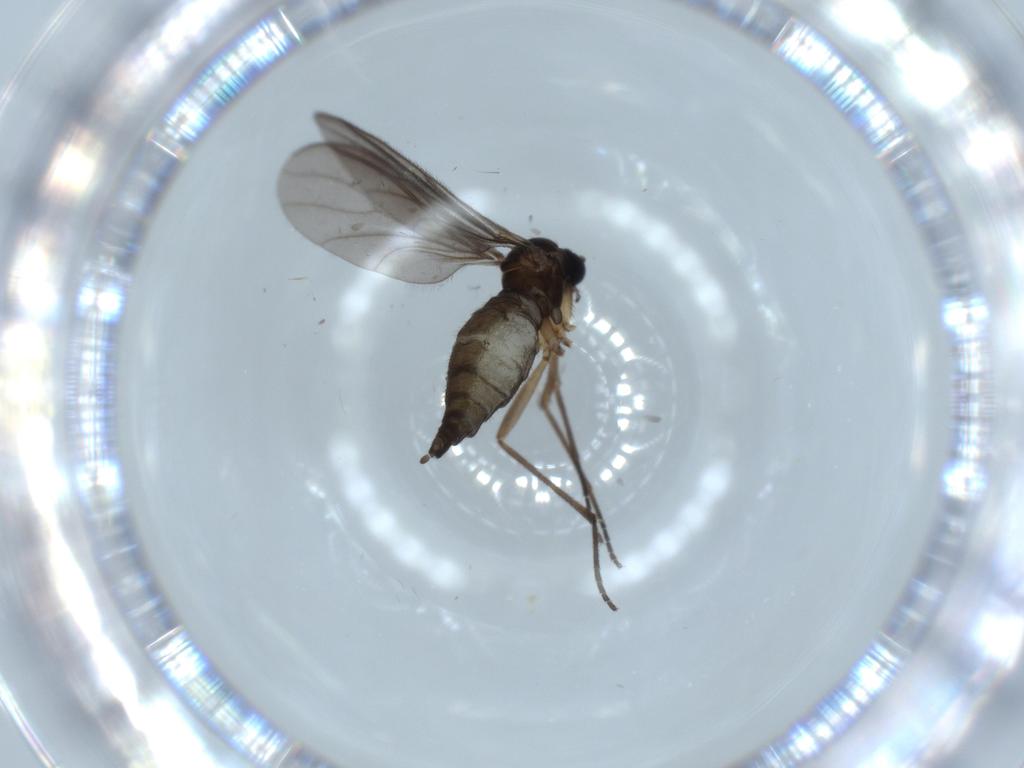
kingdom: Animalia
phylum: Arthropoda
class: Insecta
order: Diptera
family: Sciaridae
